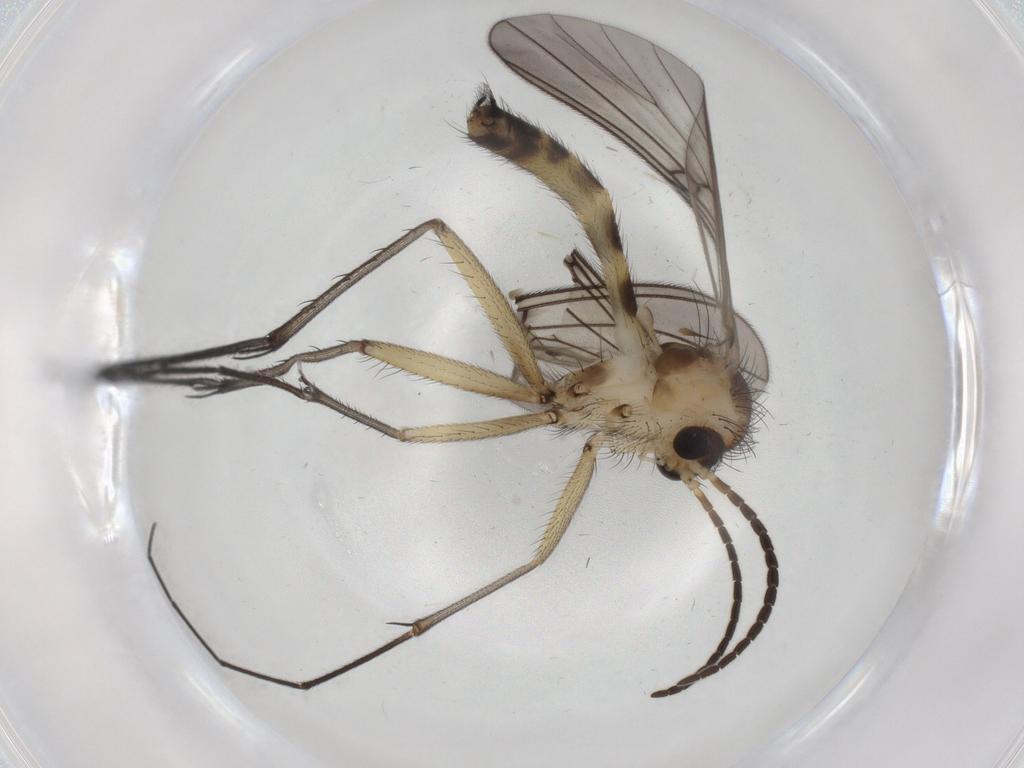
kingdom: Animalia
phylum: Arthropoda
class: Insecta
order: Diptera
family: Mycetophilidae
